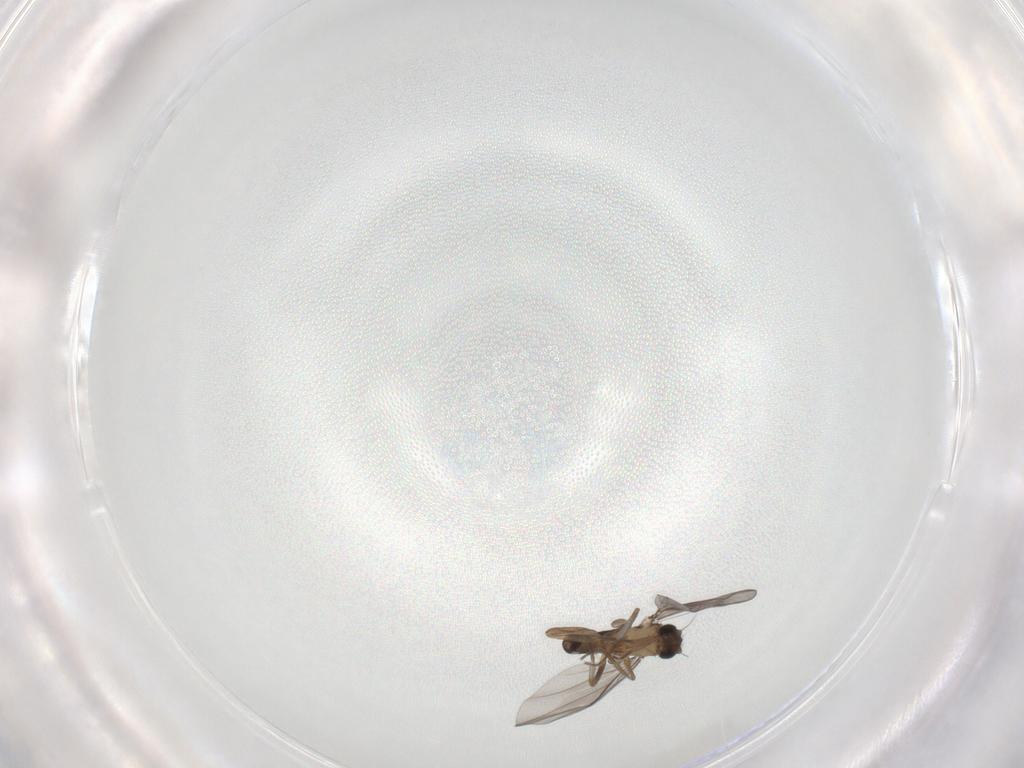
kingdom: Animalia
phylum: Arthropoda
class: Insecta
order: Diptera
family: Phoridae
